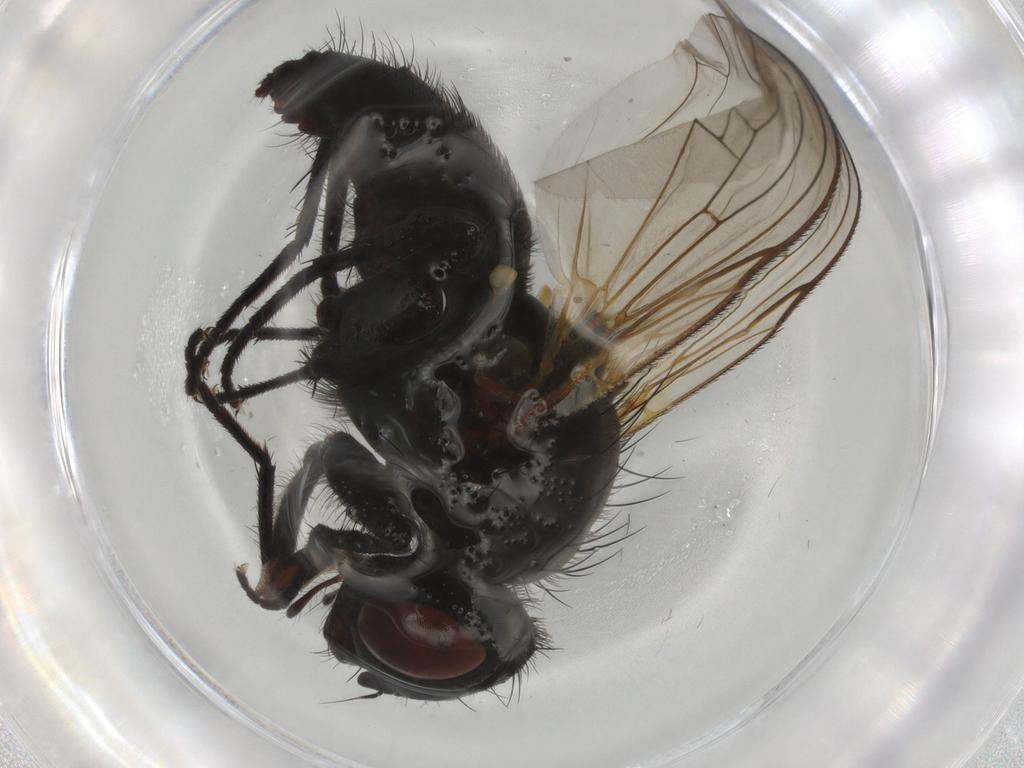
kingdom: Animalia
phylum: Arthropoda
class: Insecta
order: Diptera
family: Anthomyiidae
